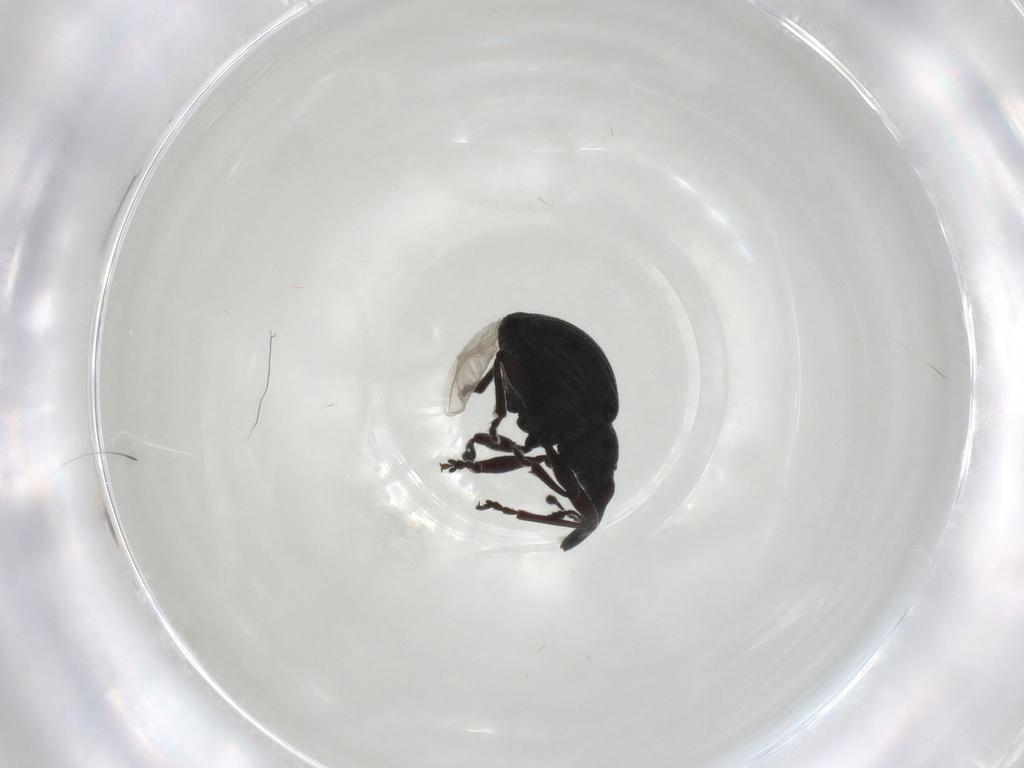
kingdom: Animalia
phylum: Arthropoda
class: Insecta
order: Coleoptera
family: Brentidae
